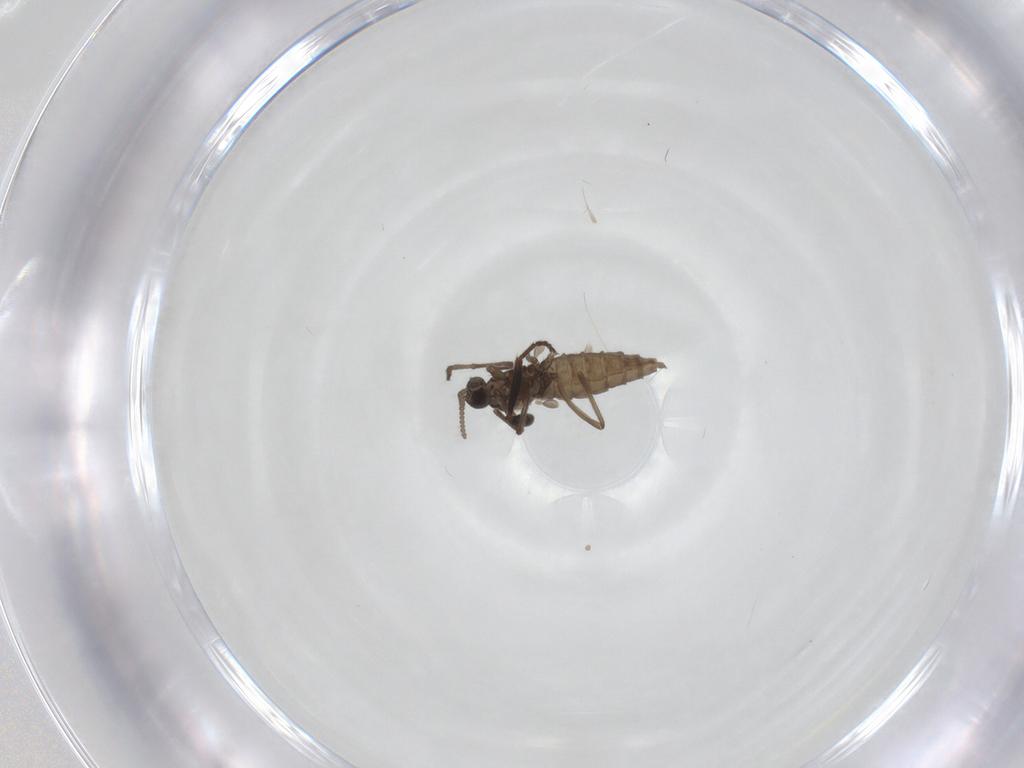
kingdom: Animalia
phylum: Arthropoda
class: Insecta
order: Diptera
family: Cecidomyiidae
